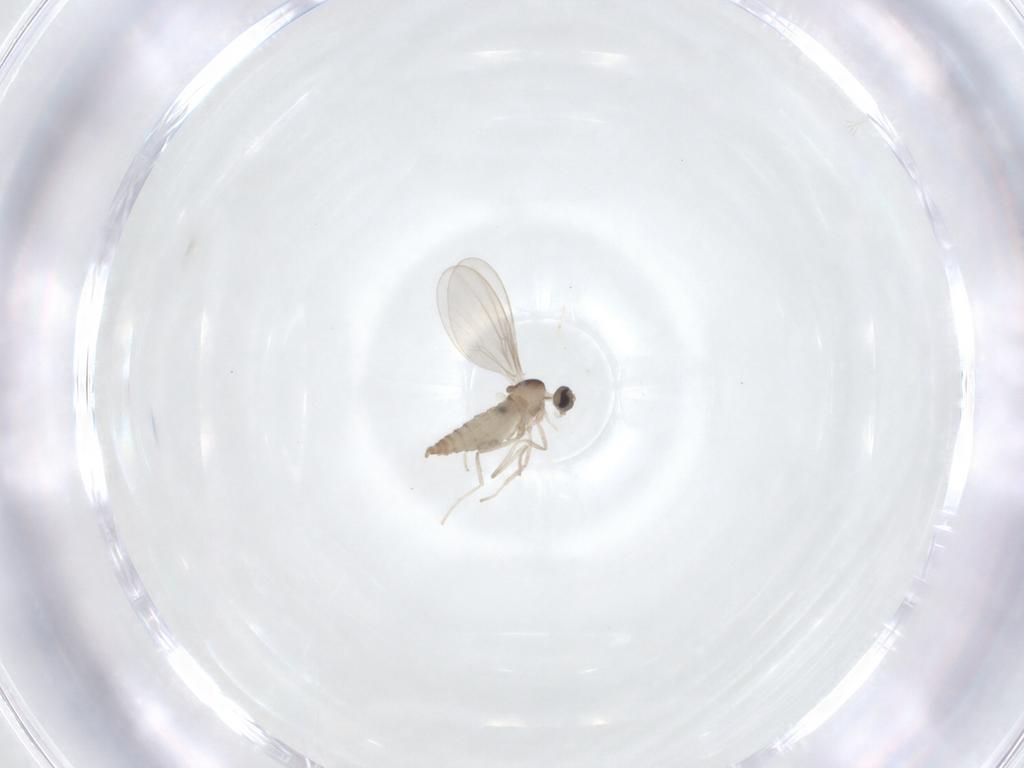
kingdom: Animalia
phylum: Arthropoda
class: Insecta
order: Diptera
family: Cecidomyiidae
